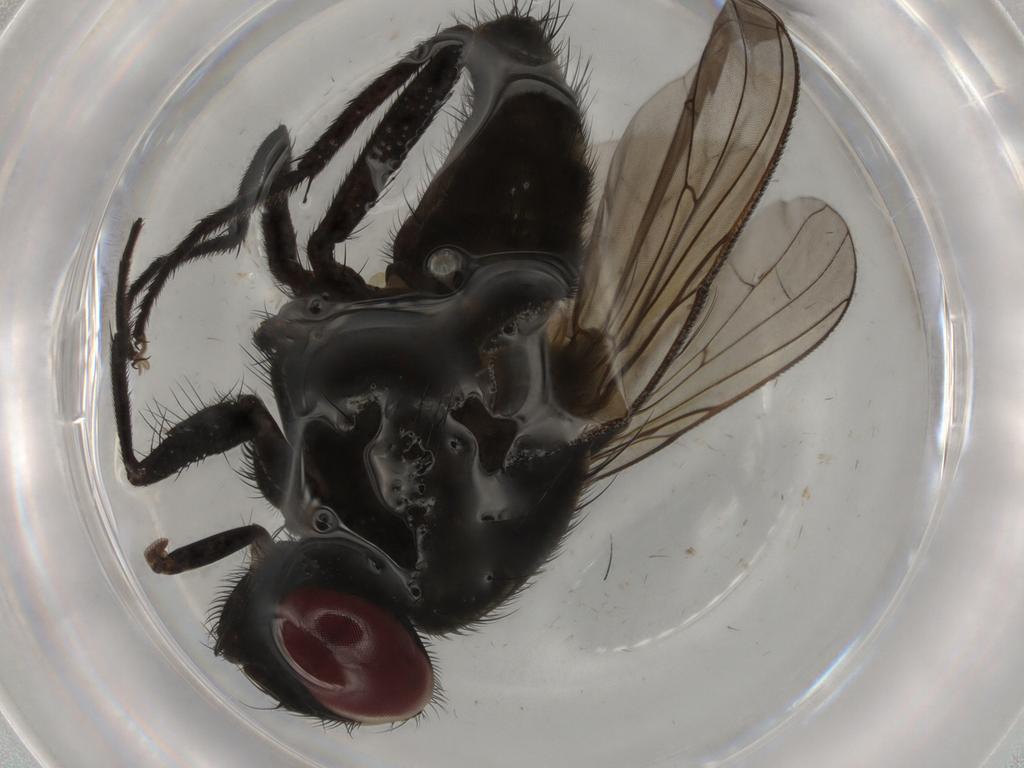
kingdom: Animalia
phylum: Arthropoda
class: Insecta
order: Diptera
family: Muscidae
